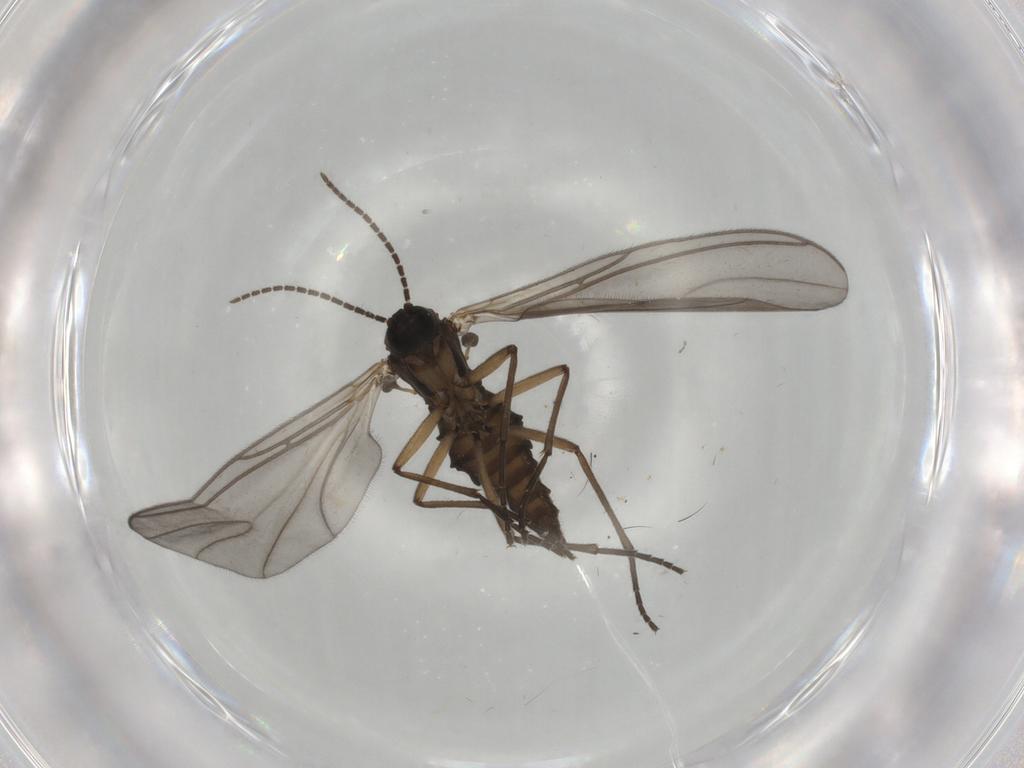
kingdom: Animalia
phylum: Arthropoda
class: Insecta
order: Diptera
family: Sciaridae
